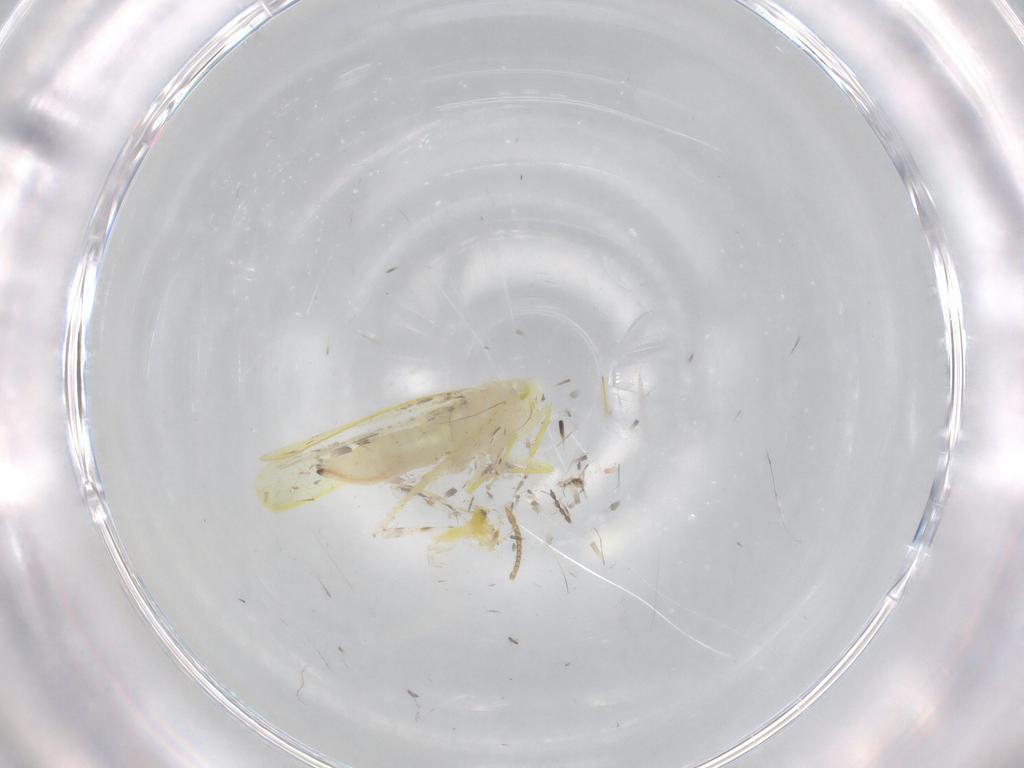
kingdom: Animalia
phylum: Arthropoda
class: Insecta
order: Hemiptera
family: Cicadellidae
